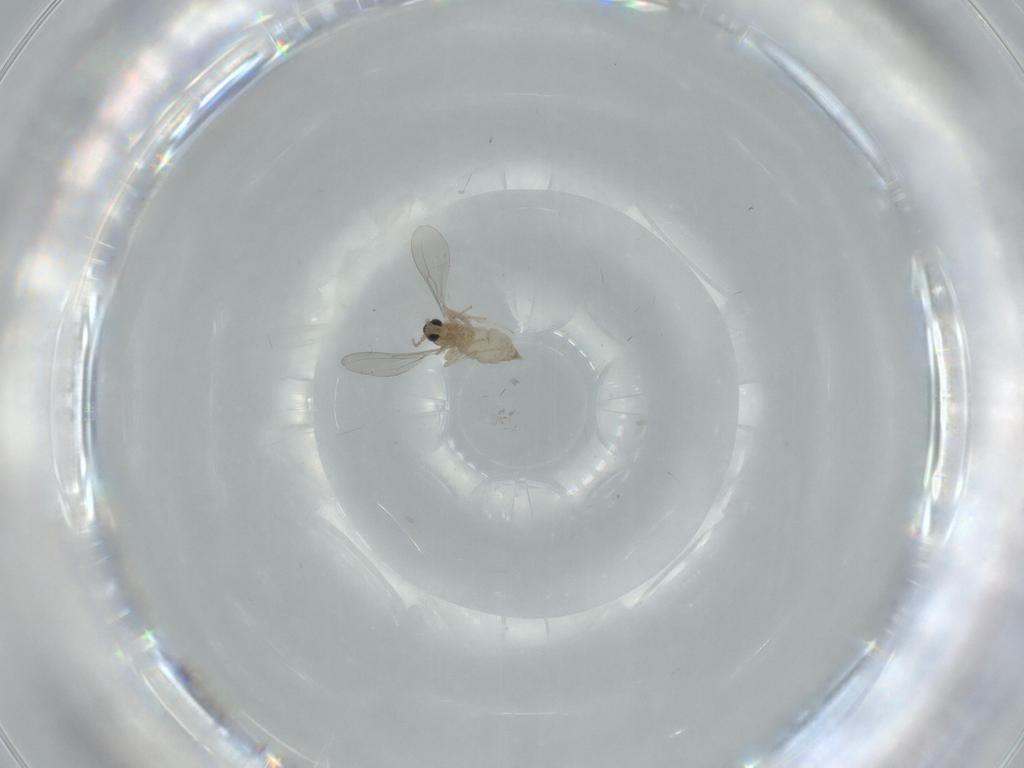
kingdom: Animalia
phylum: Arthropoda
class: Insecta
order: Diptera
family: Cecidomyiidae
